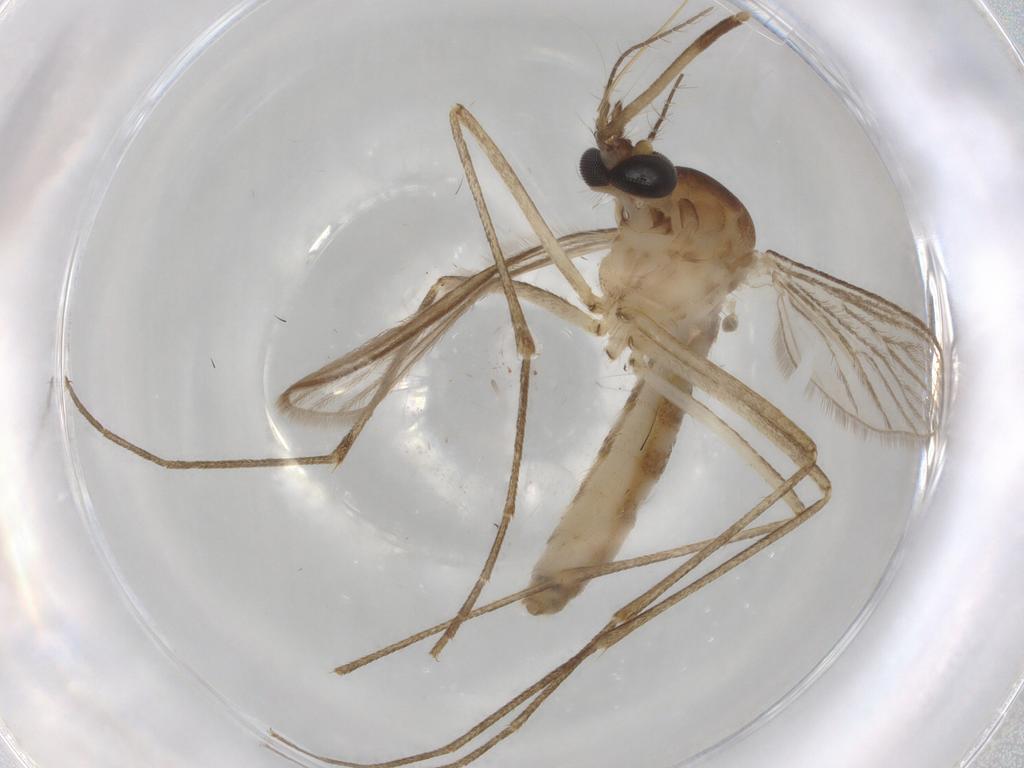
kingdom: Animalia
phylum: Arthropoda
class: Insecta
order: Diptera
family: Culicidae
